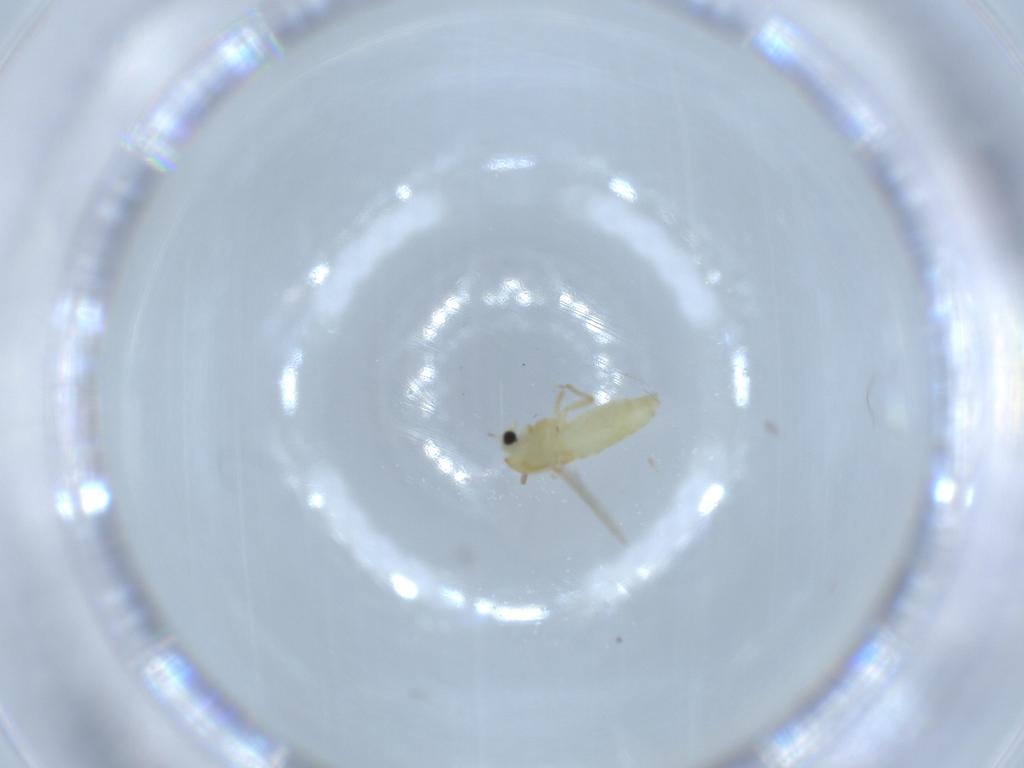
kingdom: Animalia
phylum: Arthropoda
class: Insecta
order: Diptera
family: Chironomidae
